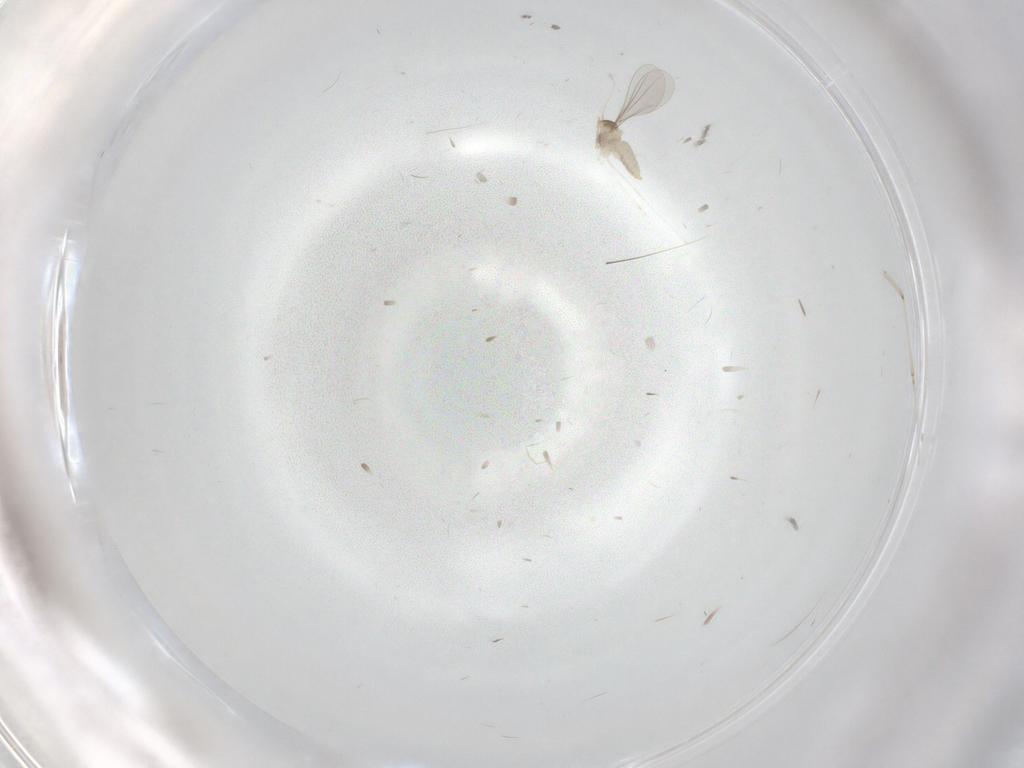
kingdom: Animalia
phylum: Arthropoda
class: Insecta
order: Diptera
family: Cecidomyiidae
